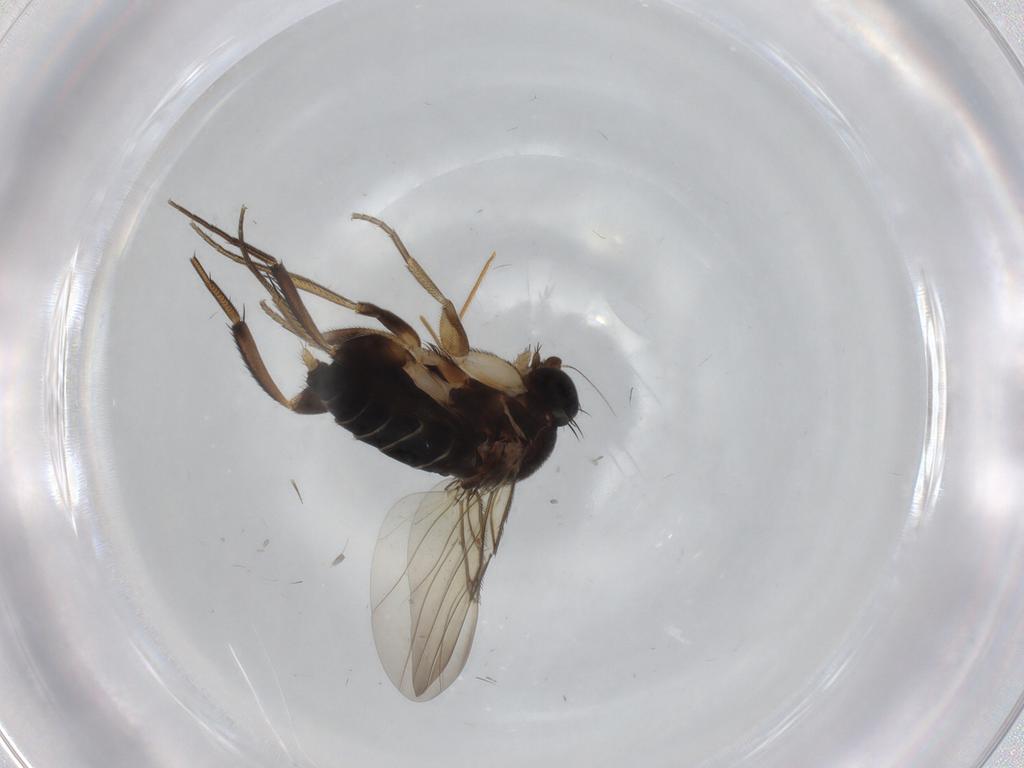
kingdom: Animalia
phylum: Arthropoda
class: Insecta
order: Diptera
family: Phoridae
